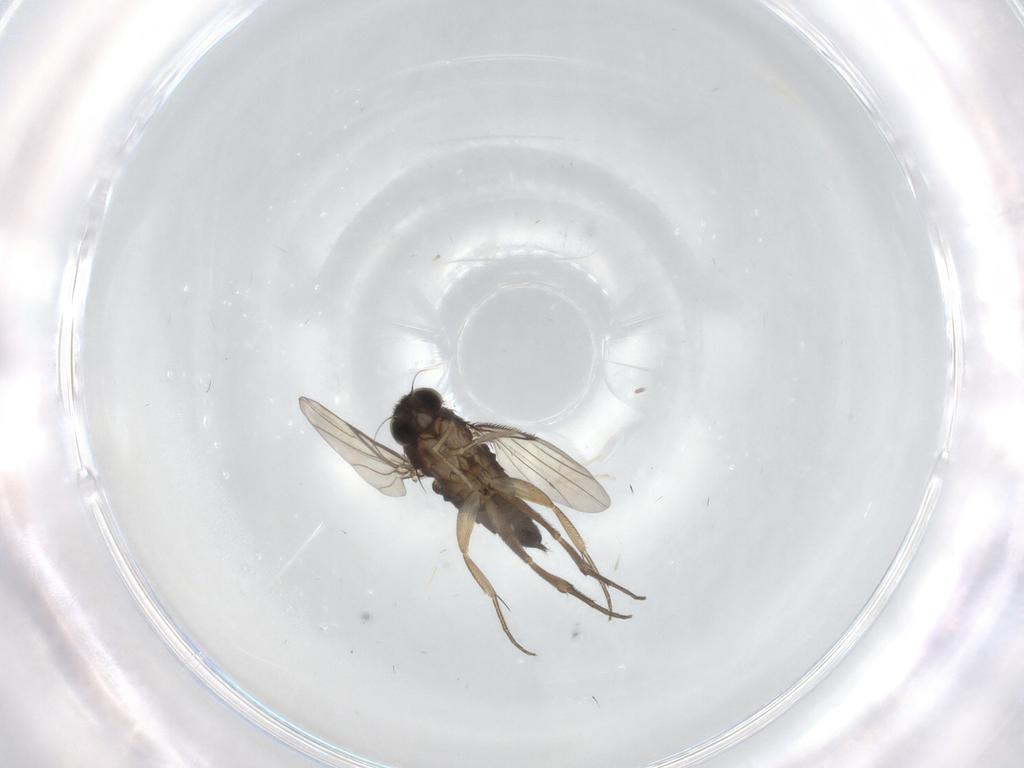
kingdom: Animalia
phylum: Arthropoda
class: Insecta
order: Diptera
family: Phoridae
